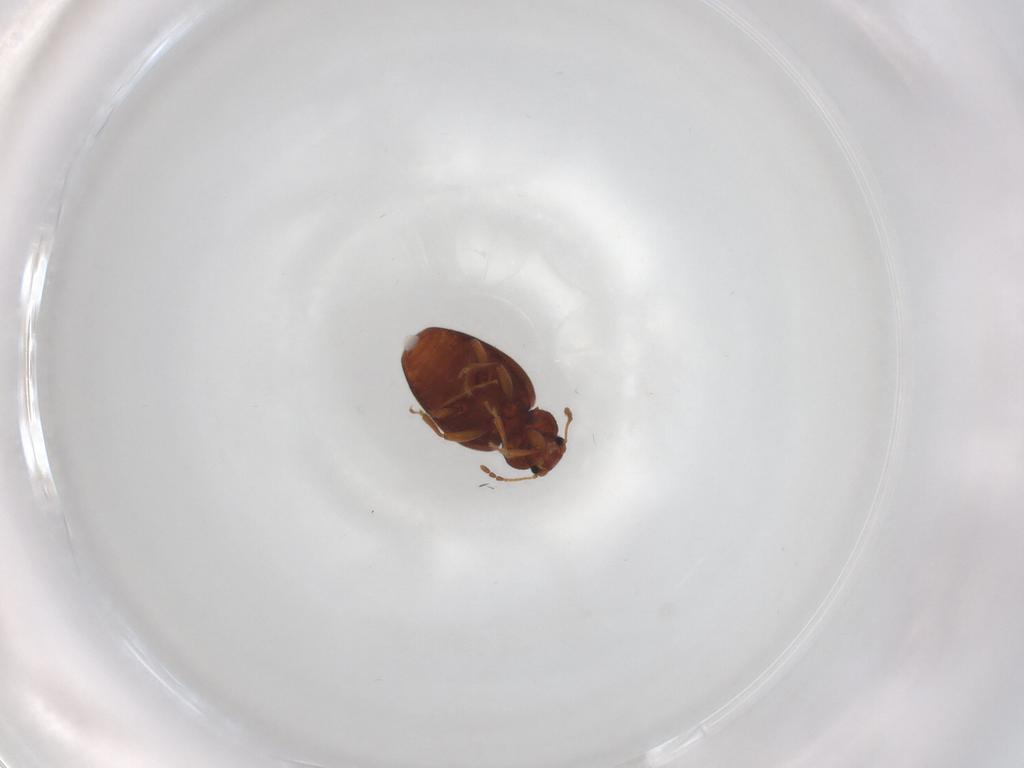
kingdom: Animalia
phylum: Arthropoda
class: Insecta
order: Coleoptera
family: Chrysomelidae
